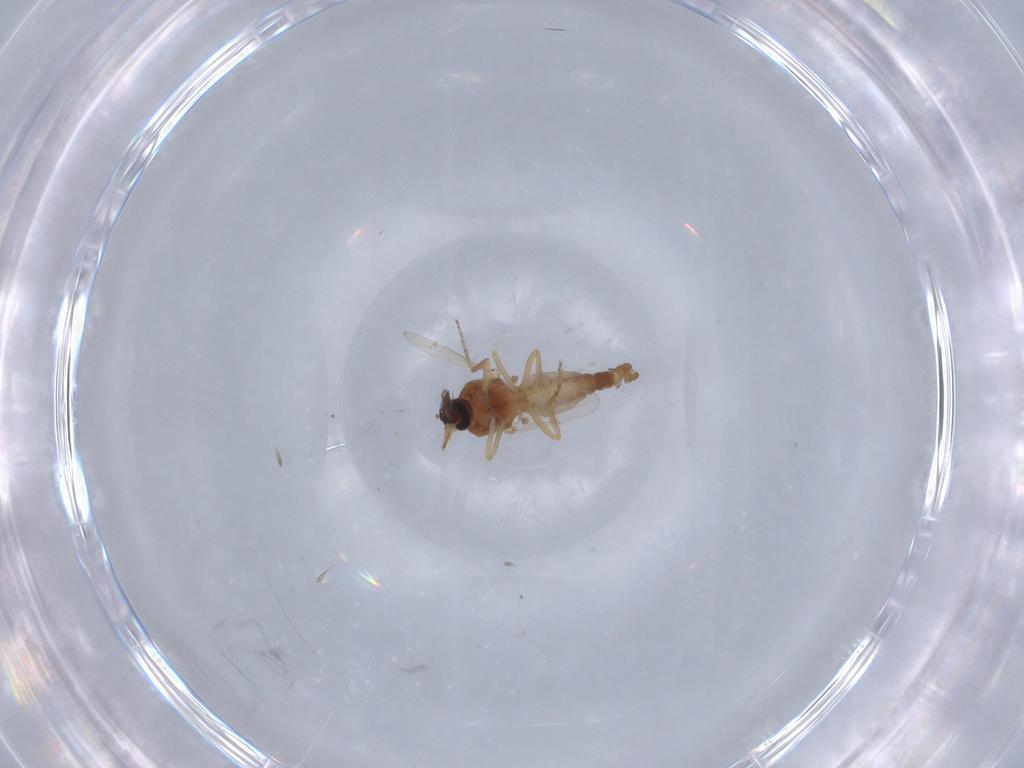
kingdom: Animalia
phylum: Arthropoda
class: Insecta
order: Diptera
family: Ceratopogonidae
